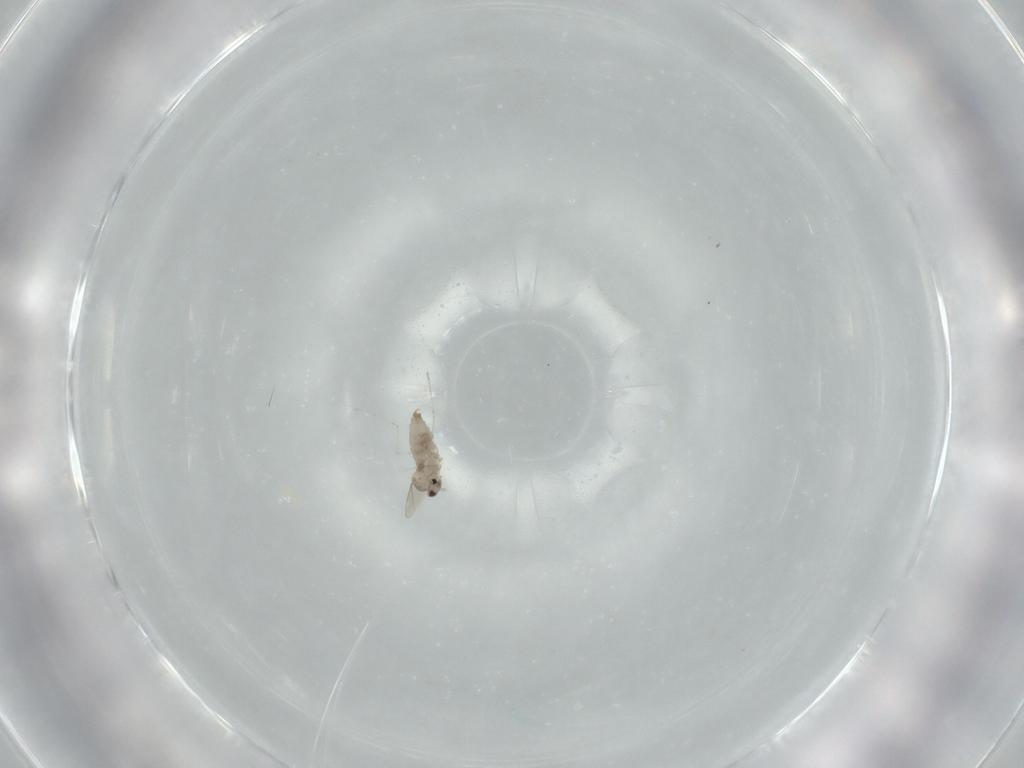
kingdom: Animalia
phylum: Arthropoda
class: Insecta
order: Diptera
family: Cecidomyiidae
